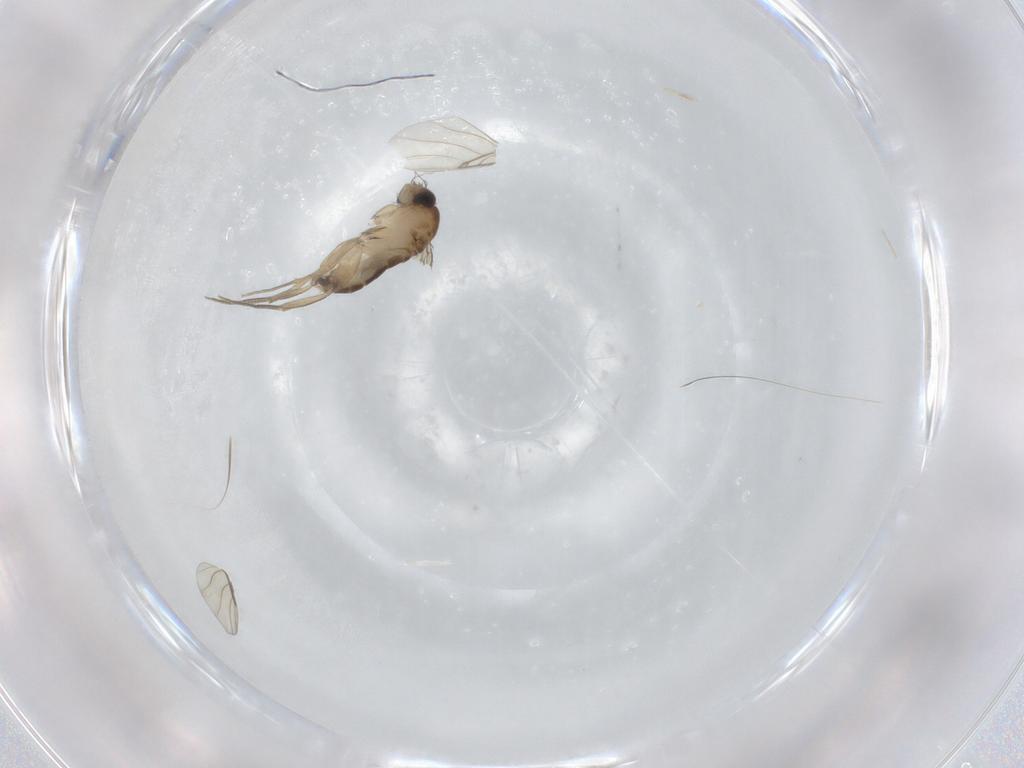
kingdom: Animalia
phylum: Arthropoda
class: Insecta
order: Diptera
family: Phoridae
